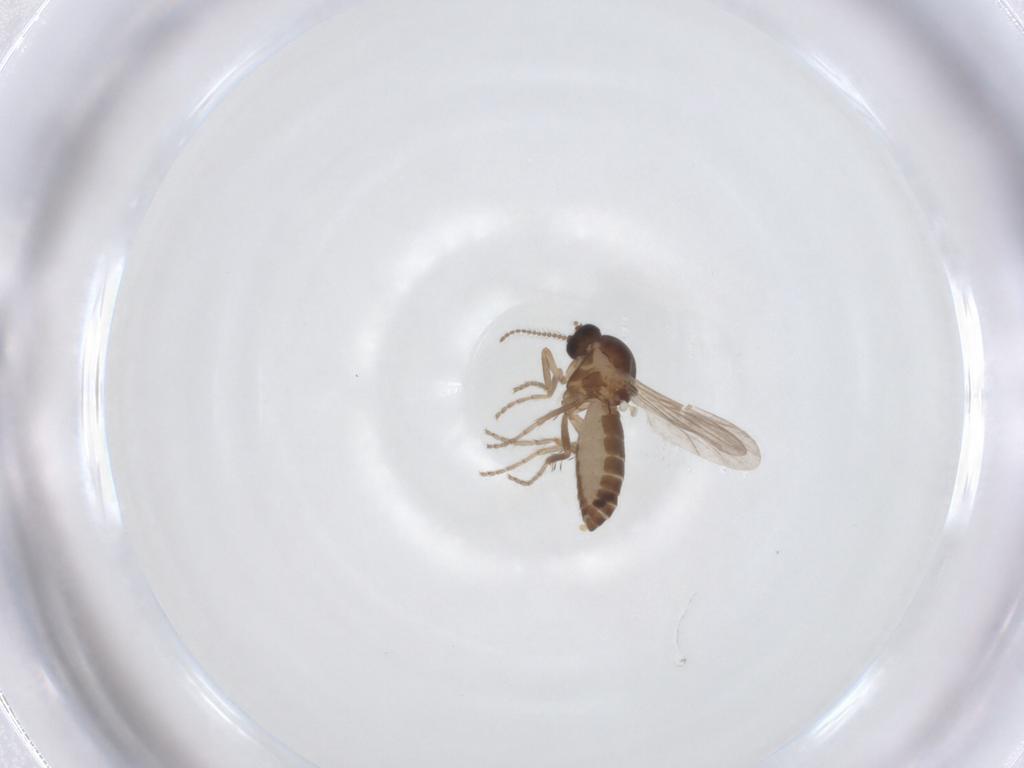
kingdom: Animalia
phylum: Arthropoda
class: Insecta
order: Diptera
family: Ceratopogonidae
